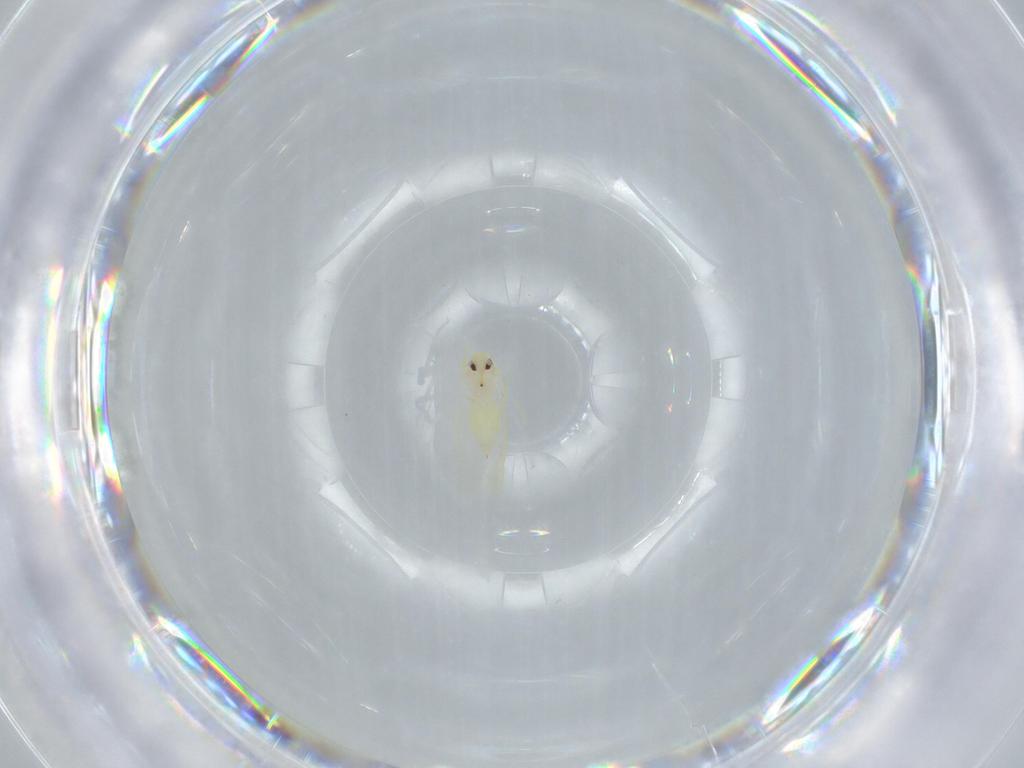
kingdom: Animalia
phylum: Arthropoda
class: Insecta
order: Hemiptera
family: Aleyrodidae
